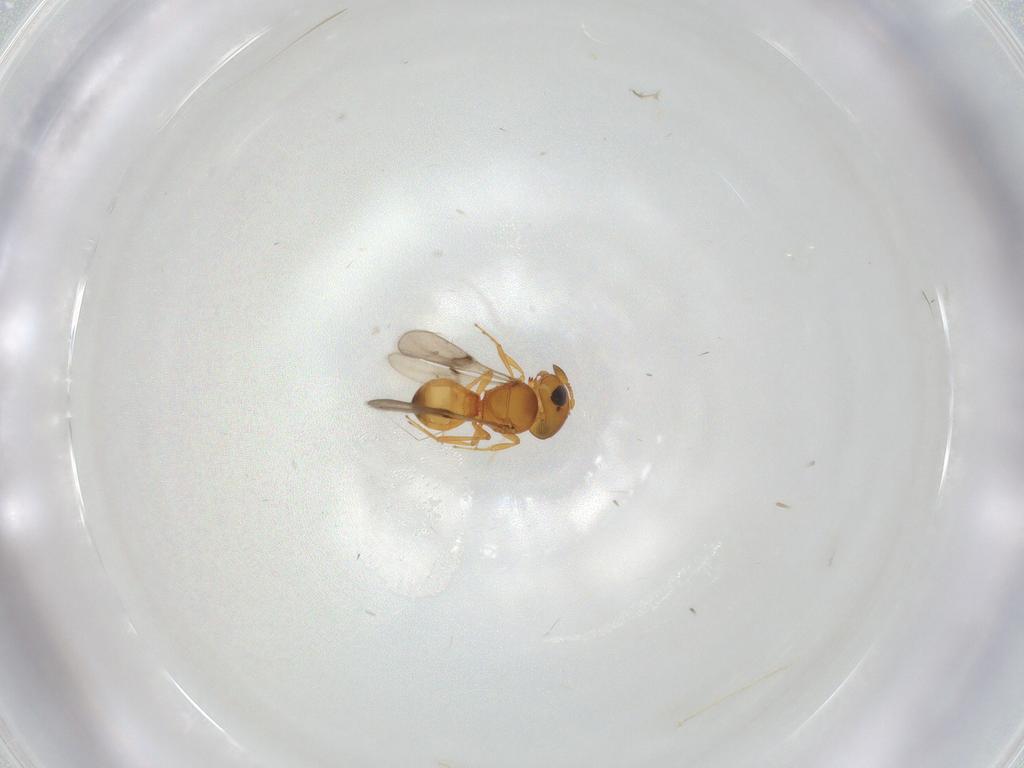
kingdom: Animalia
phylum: Arthropoda
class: Insecta
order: Hymenoptera
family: Scelionidae
